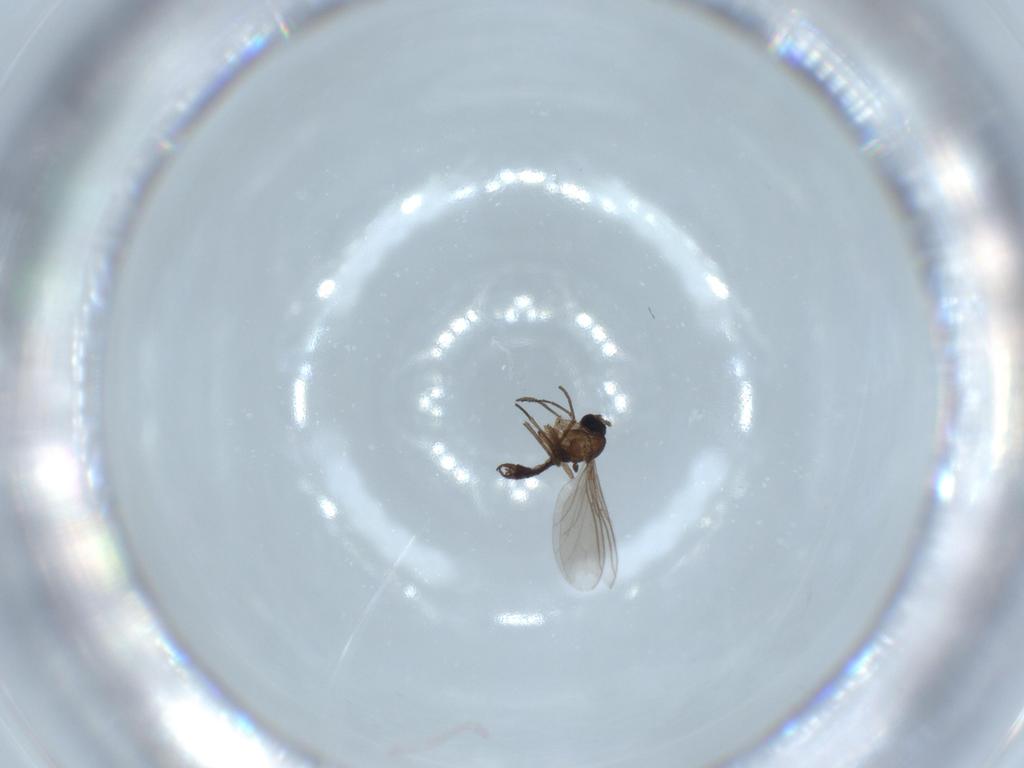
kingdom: Animalia
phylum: Arthropoda
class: Insecta
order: Diptera
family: Sciaridae
